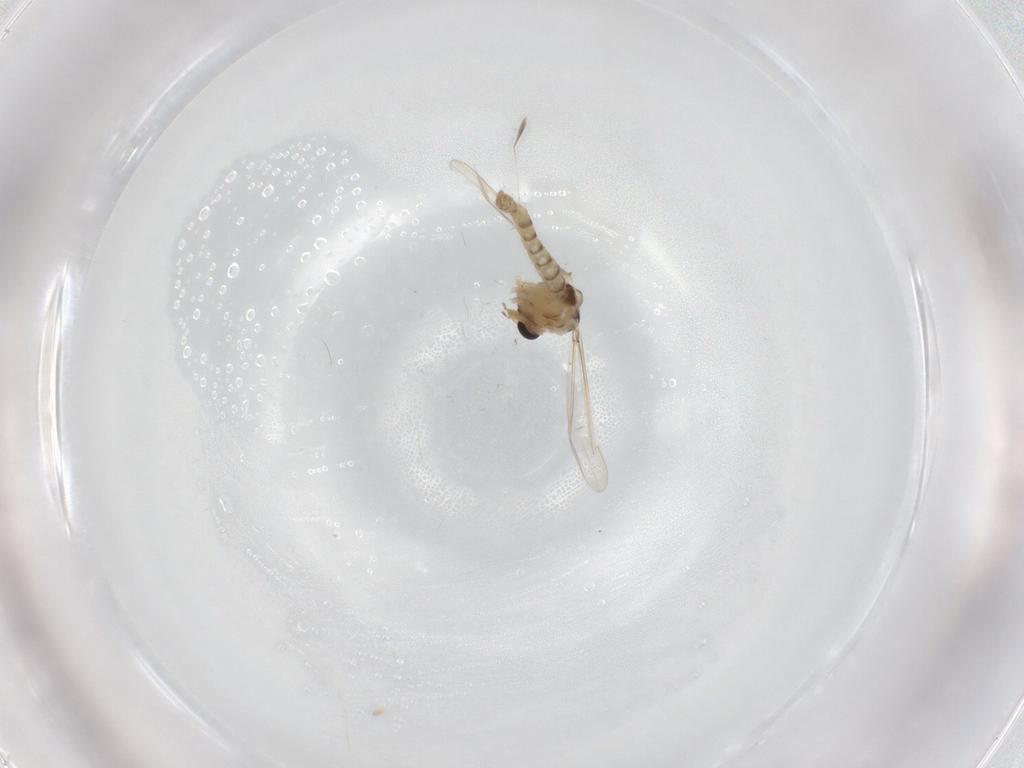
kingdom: Animalia
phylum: Arthropoda
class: Insecta
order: Diptera
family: Chironomidae
